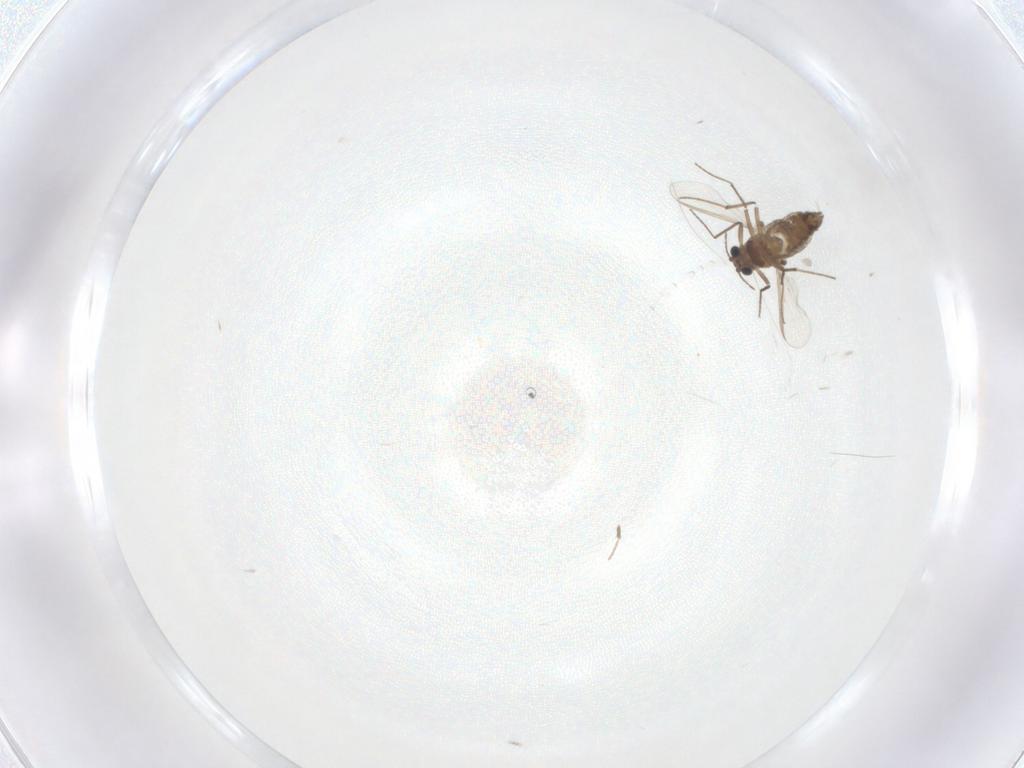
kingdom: Animalia
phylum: Arthropoda
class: Insecta
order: Diptera
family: Chironomidae
